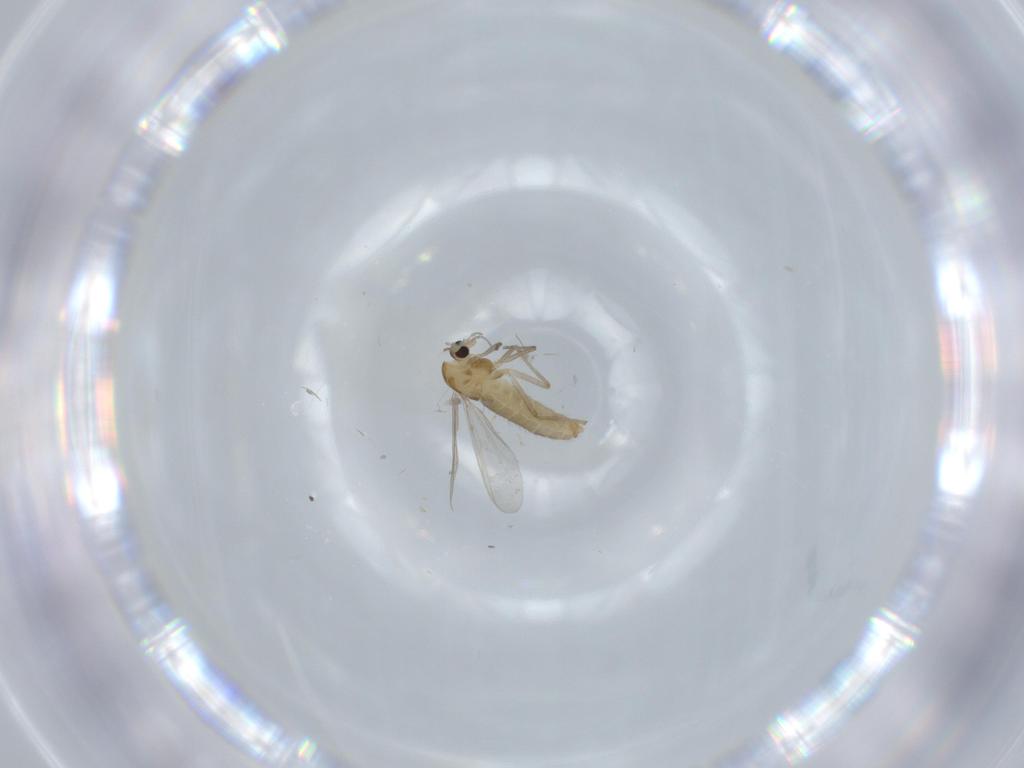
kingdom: Animalia
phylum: Arthropoda
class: Insecta
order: Diptera
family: Chironomidae
